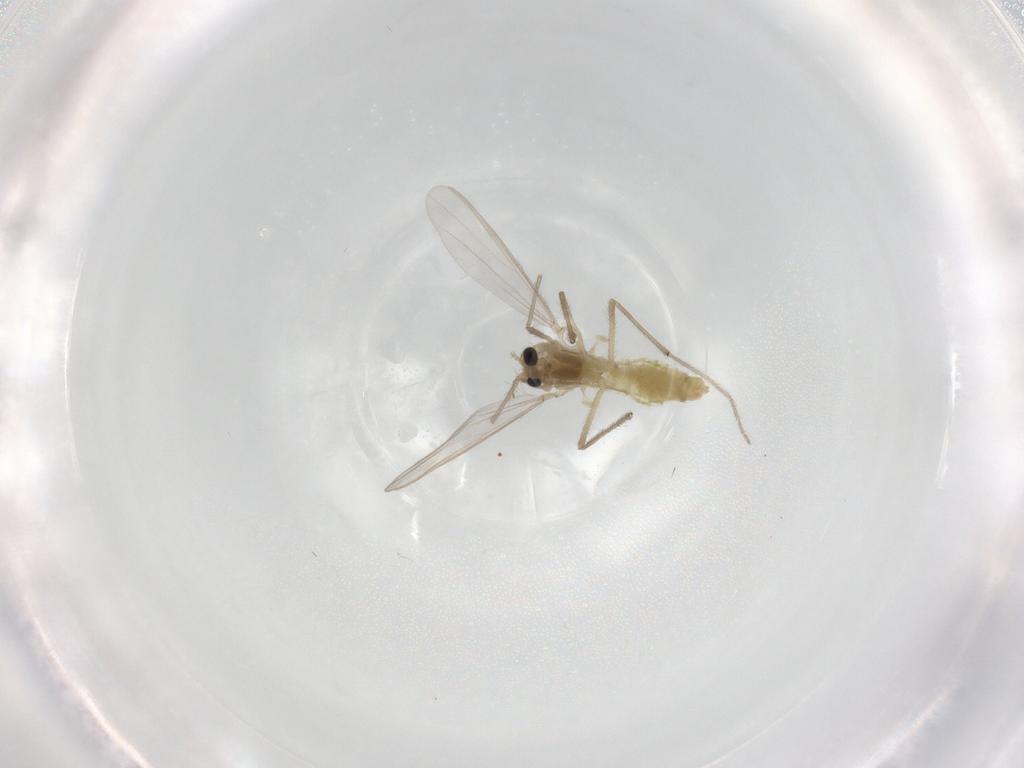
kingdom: Animalia
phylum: Arthropoda
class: Insecta
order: Diptera
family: Chironomidae
